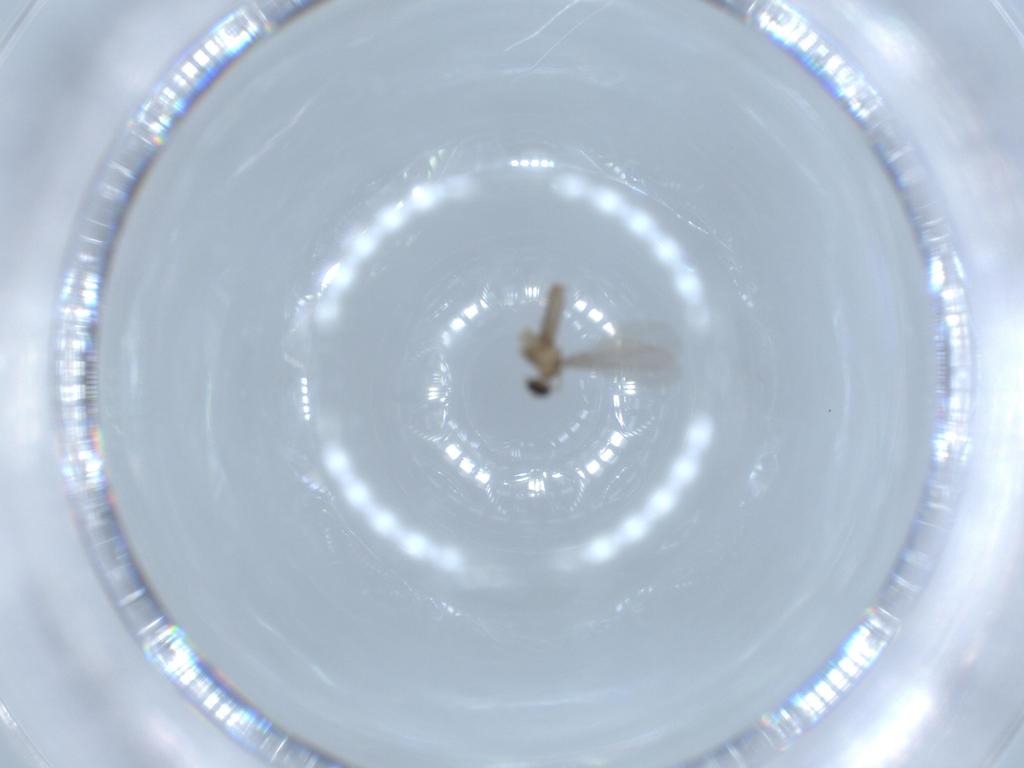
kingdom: Animalia
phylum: Arthropoda
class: Insecta
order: Diptera
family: Cecidomyiidae
